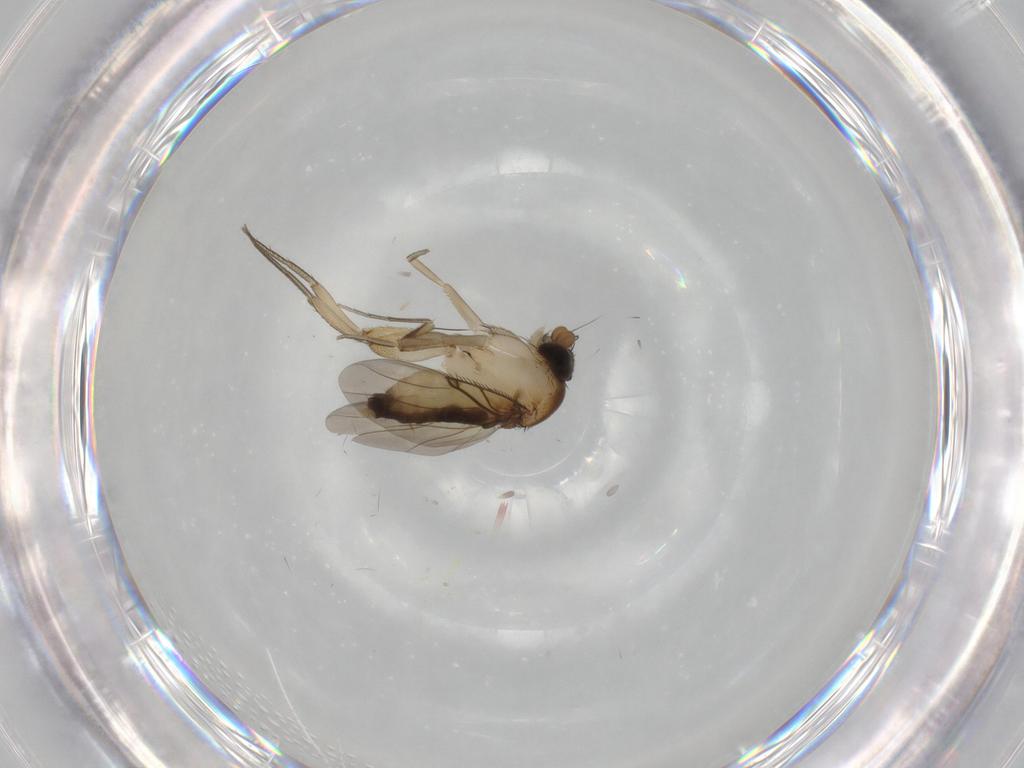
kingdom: Animalia
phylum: Arthropoda
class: Insecta
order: Diptera
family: Phoridae
